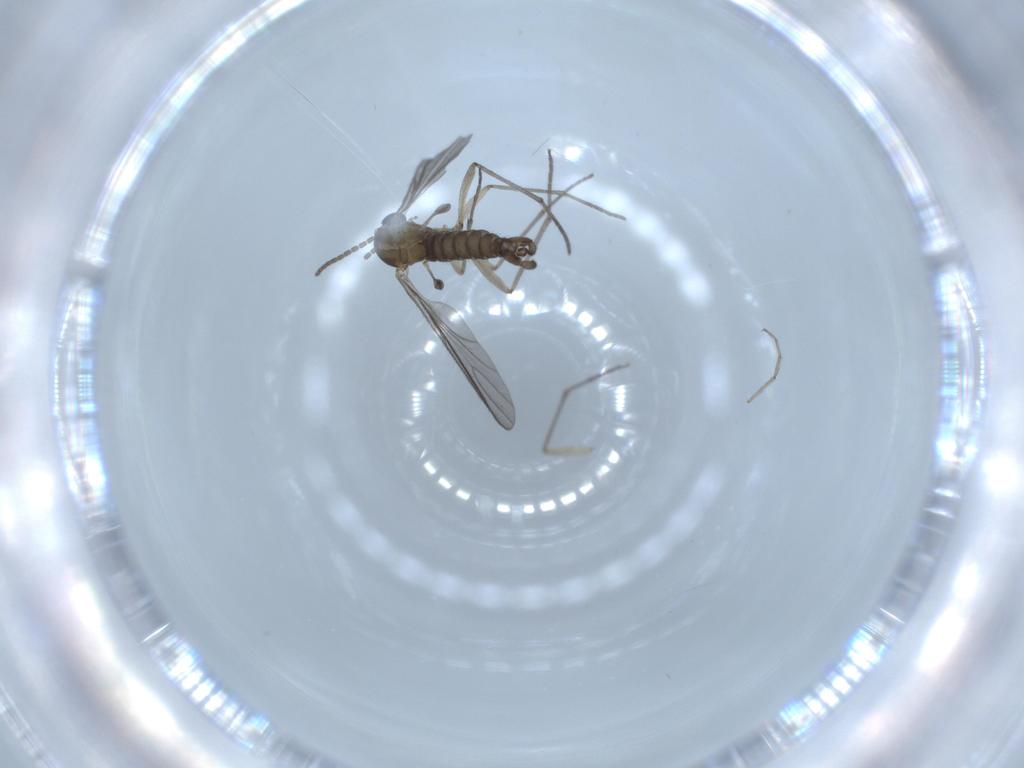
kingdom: Animalia
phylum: Arthropoda
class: Insecta
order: Diptera
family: Sciaridae
